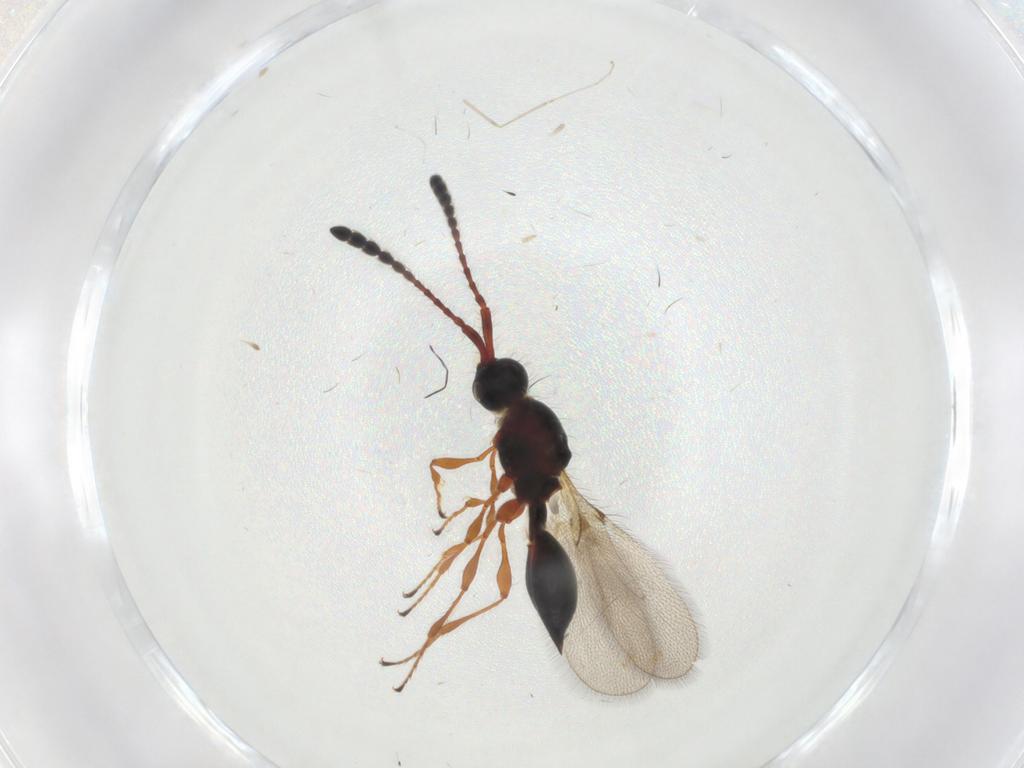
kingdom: Animalia
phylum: Arthropoda
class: Insecta
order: Hymenoptera
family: Diapriidae
